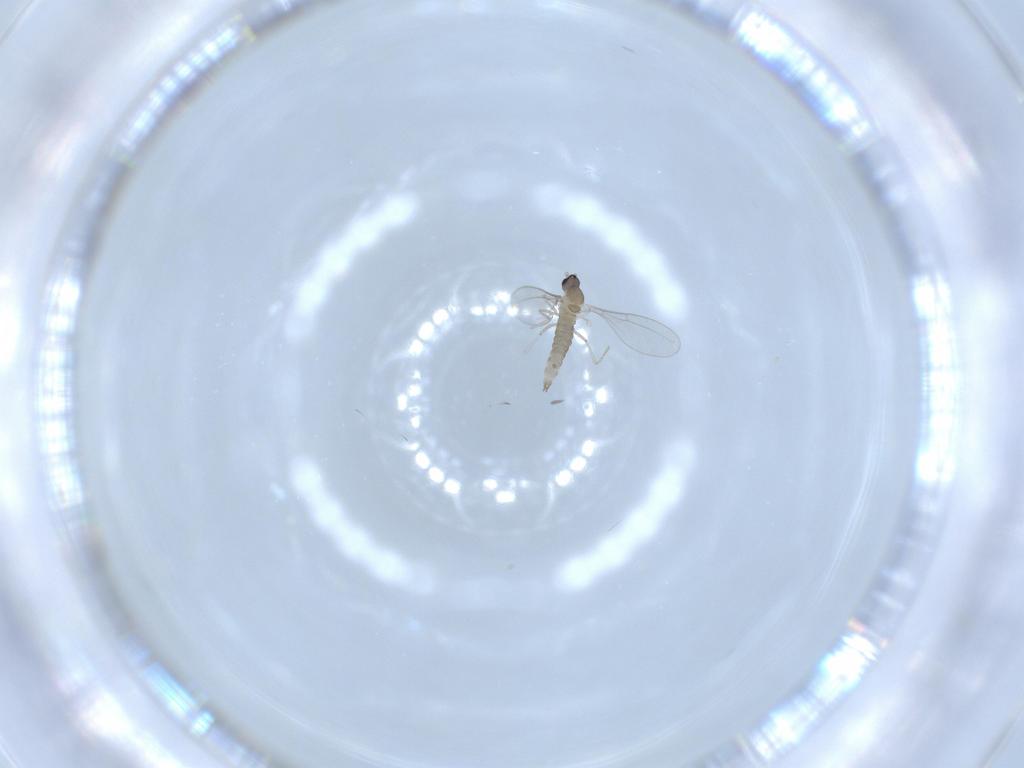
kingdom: Animalia
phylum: Arthropoda
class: Insecta
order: Diptera
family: Cecidomyiidae
